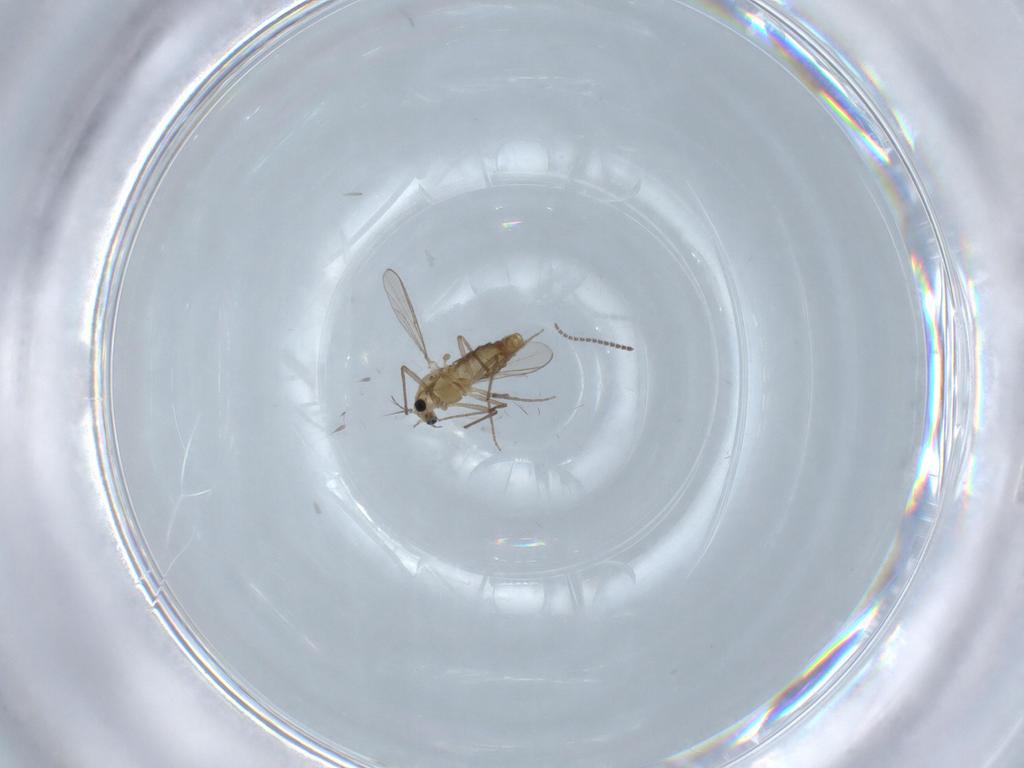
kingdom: Animalia
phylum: Arthropoda
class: Insecta
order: Diptera
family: Chironomidae
